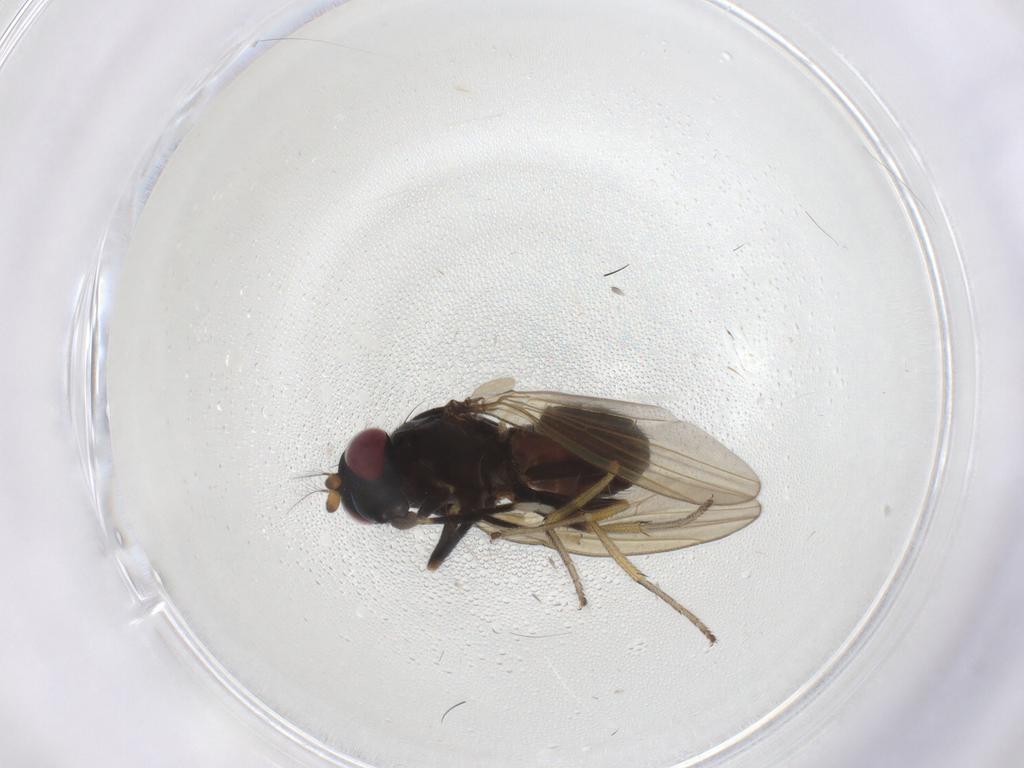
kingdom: Animalia
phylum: Arthropoda
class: Insecta
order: Diptera
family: Lauxaniidae
